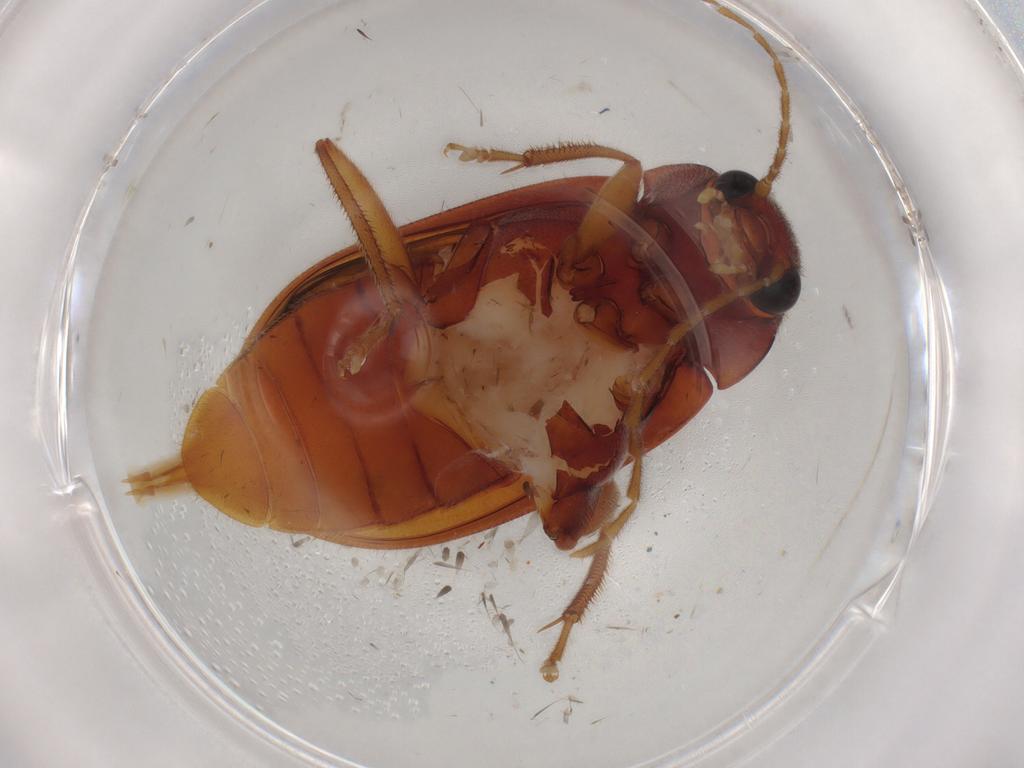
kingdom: Animalia
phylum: Arthropoda
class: Insecta
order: Coleoptera
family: Ptilodactylidae
